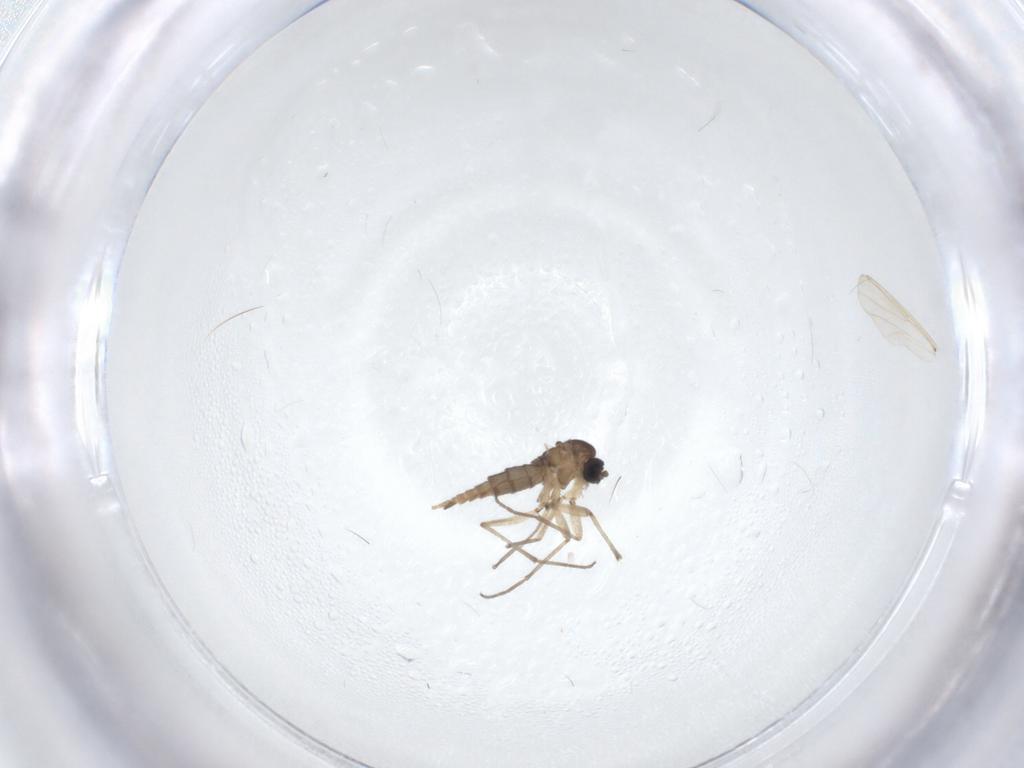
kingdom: Animalia
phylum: Arthropoda
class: Insecta
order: Diptera
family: Sciaridae
